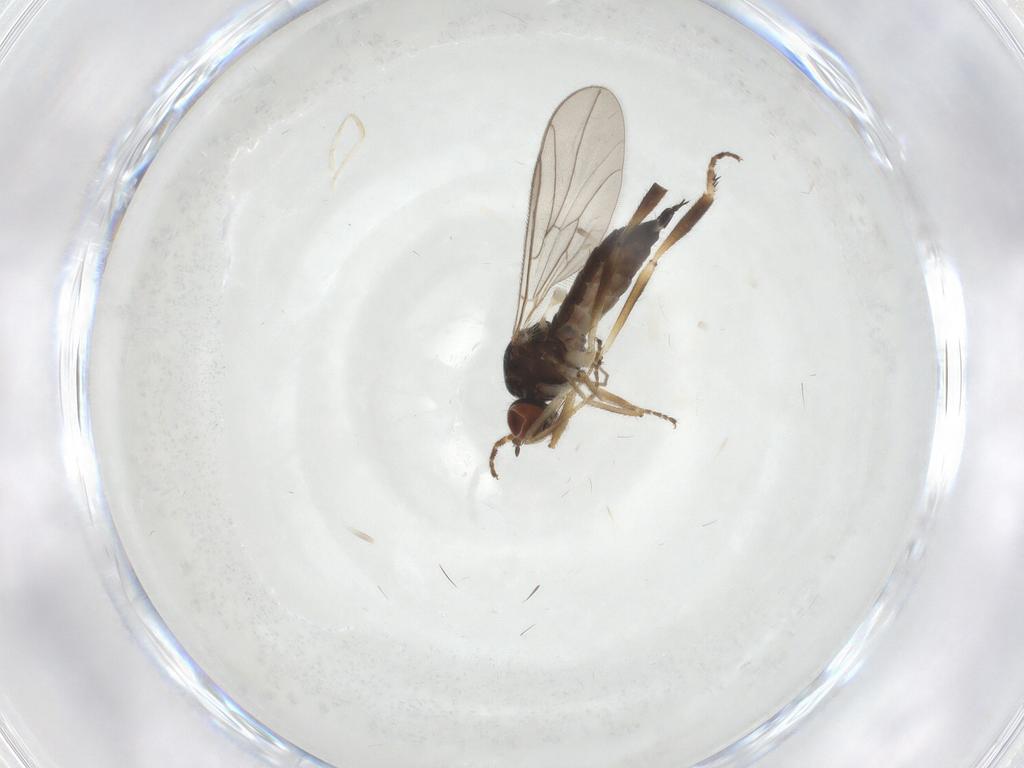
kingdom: Animalia
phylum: Arthropoda
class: Insecta
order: Diptera
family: Hybotidae
